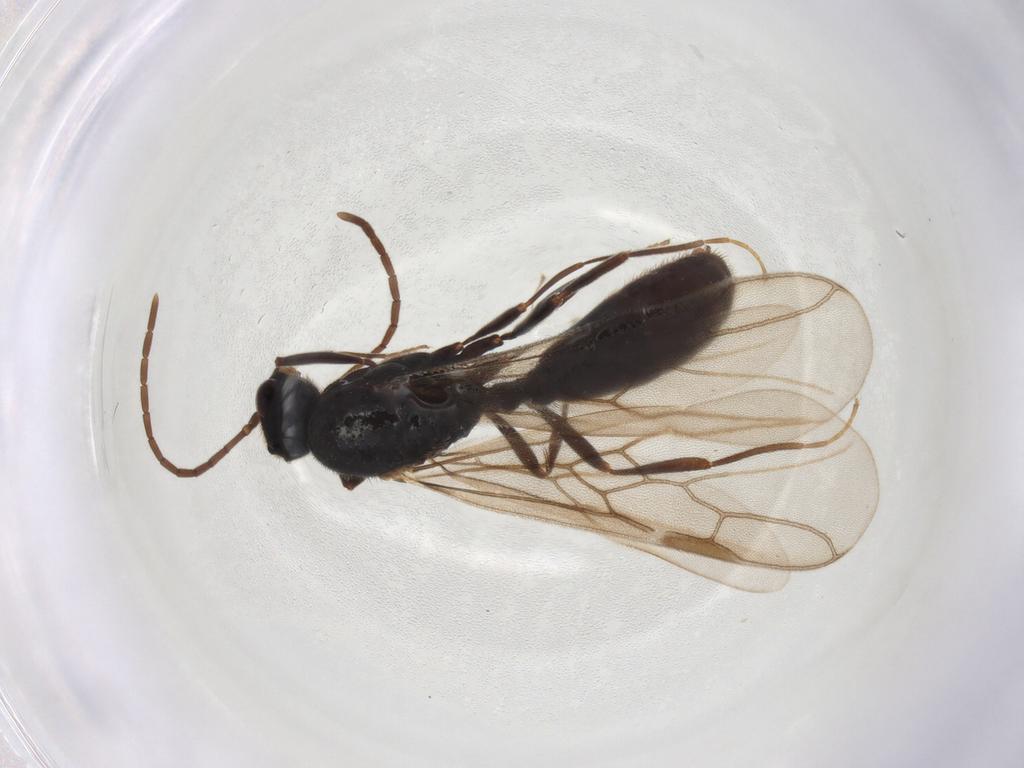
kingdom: Animalia
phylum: Arthropoda
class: Insecta
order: Hymenoptera
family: Formicidae
